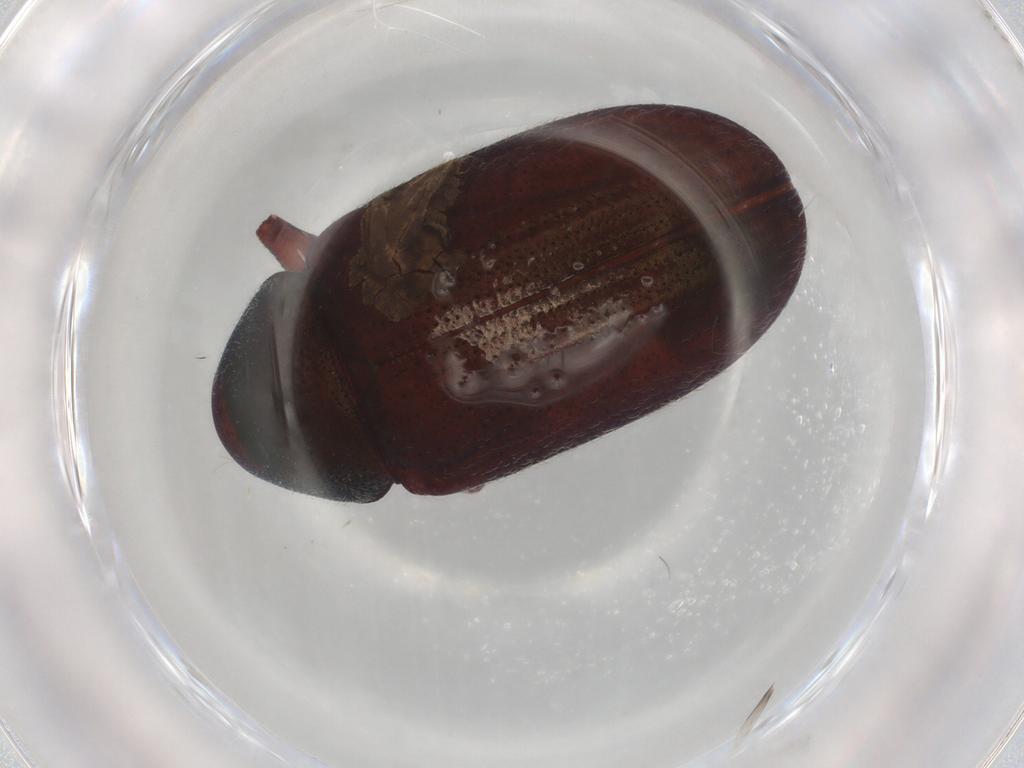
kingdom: Animalia
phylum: Arthropoda
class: Insecta
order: Coleoptera
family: Chrysomelidae
